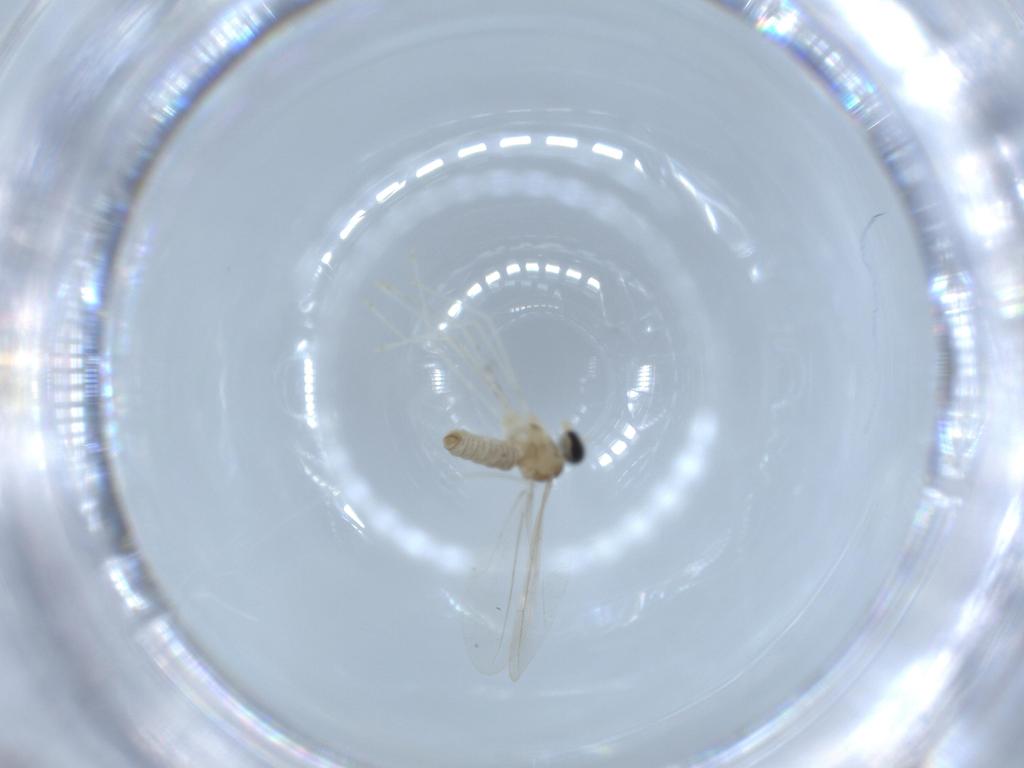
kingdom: Animalia
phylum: Arthropoda
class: Insecta
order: Diptera
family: Cecidomyiidae
